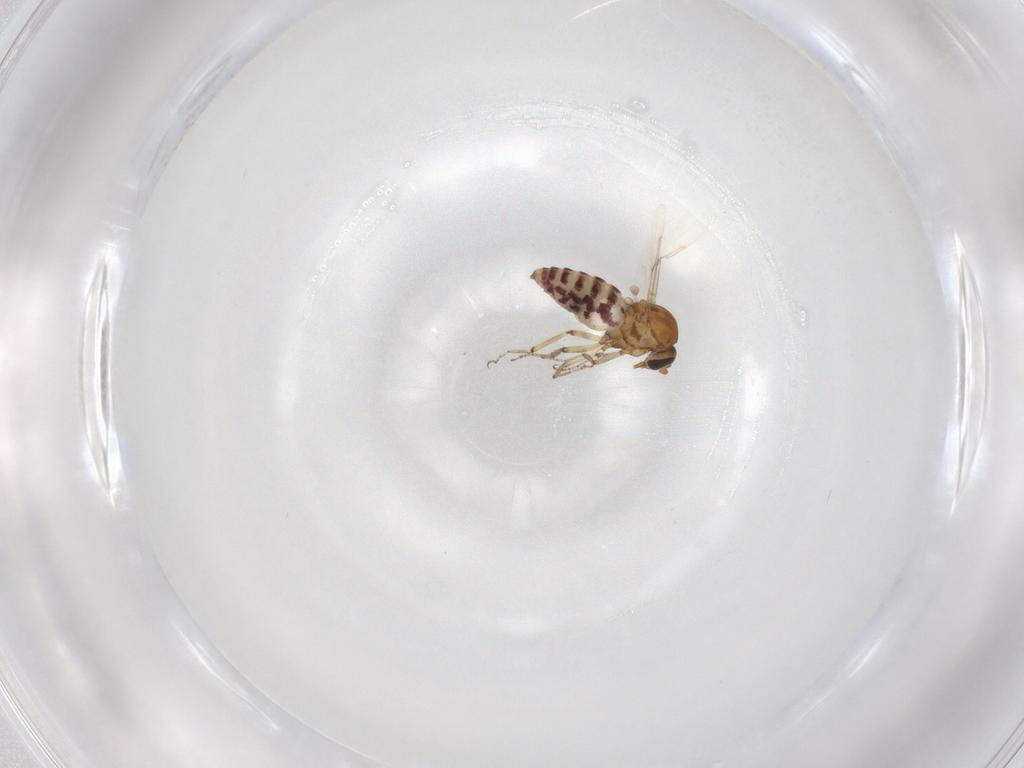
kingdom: Animalia
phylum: Arthropoda
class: Insecta
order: Diptera
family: Ceratopogonidae
